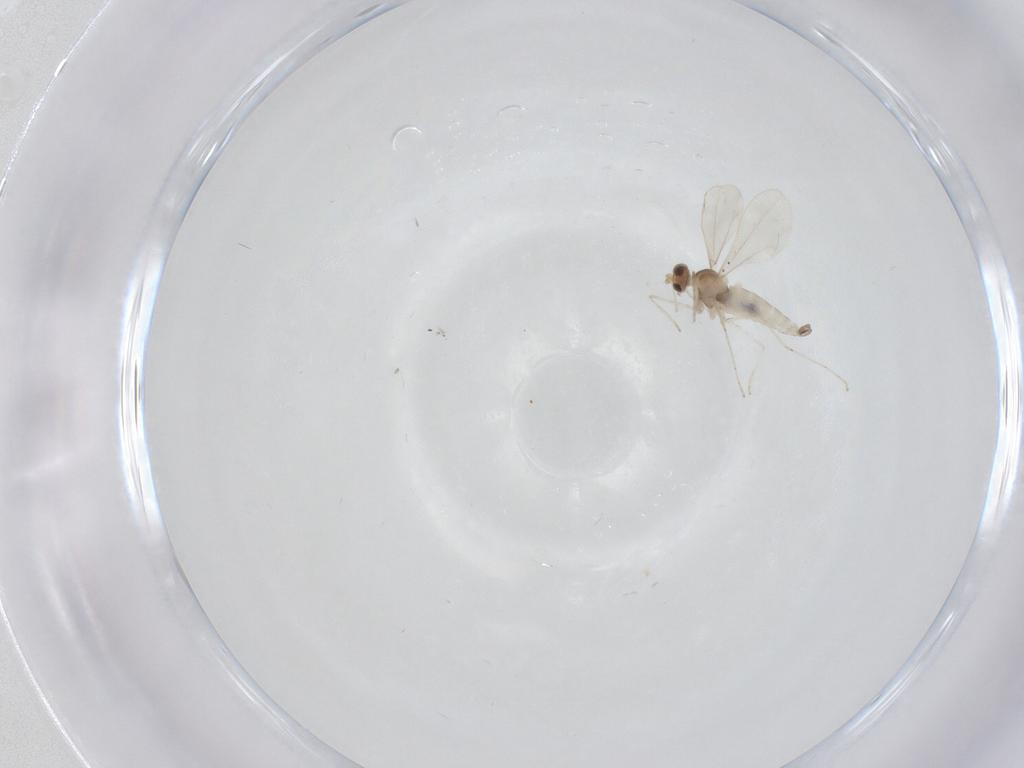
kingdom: Animalia
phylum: Arthropoda
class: Insecta
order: Diptera
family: Cecidomyiidae
